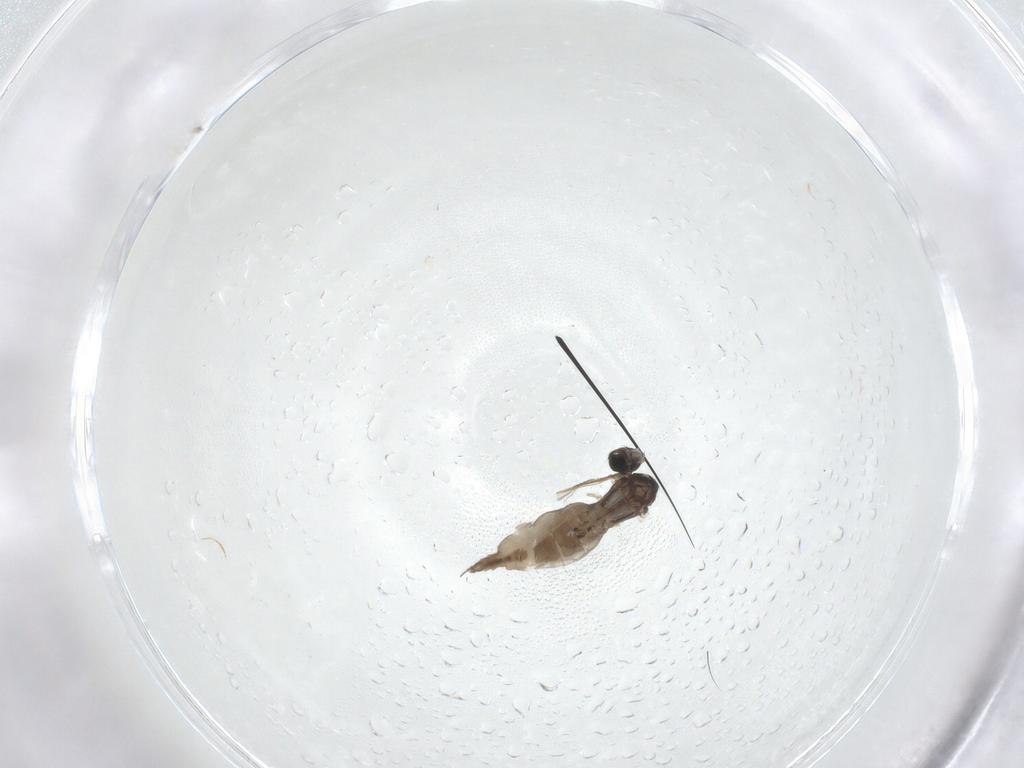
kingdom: Animalia
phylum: Arthropoda
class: Insecta
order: Diptera
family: Sciaridae
